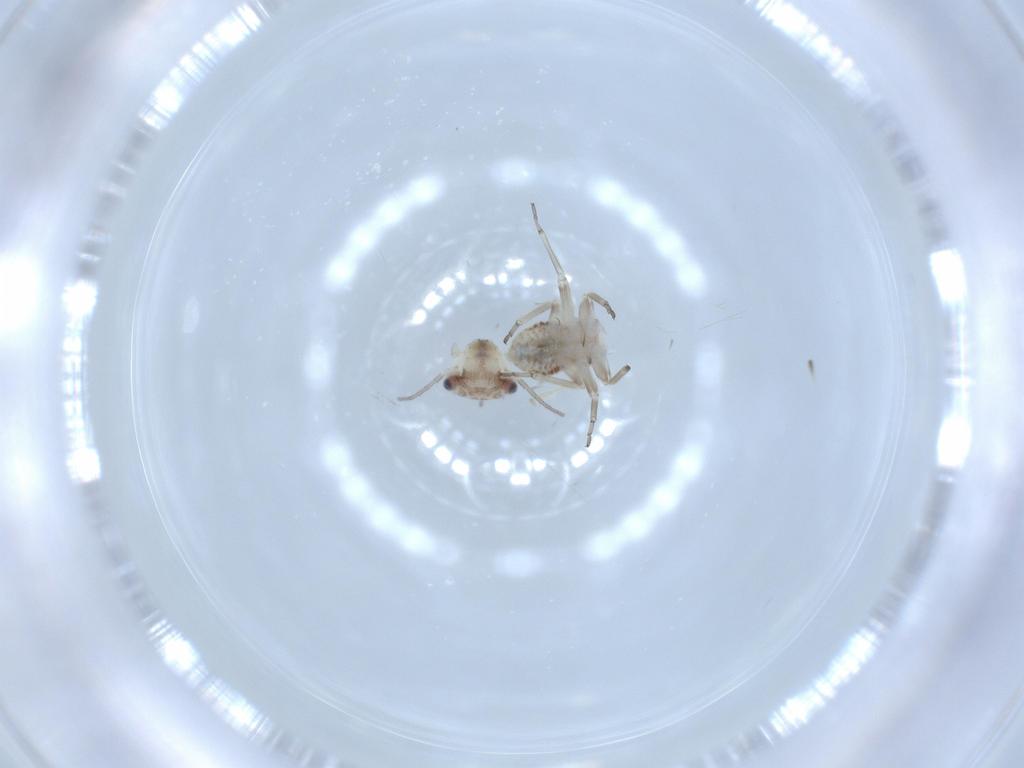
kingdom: Animalia
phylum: Arthropoda
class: Insecta
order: Psocodea
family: Psocidae
